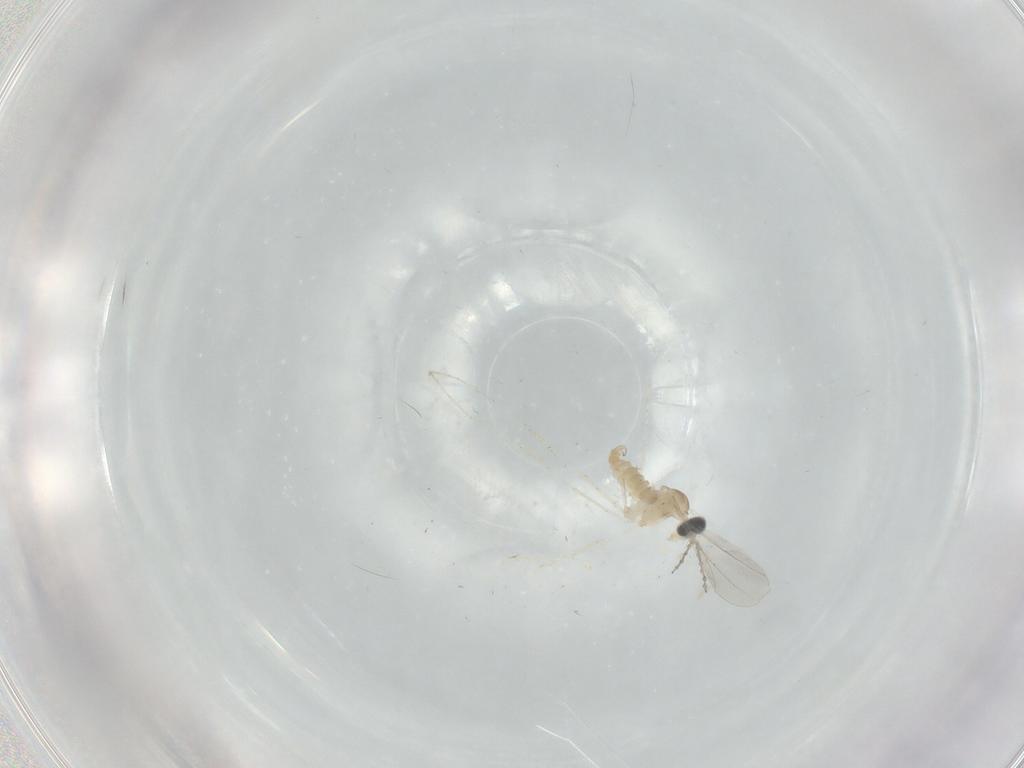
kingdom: Animalia
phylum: Arthropoda
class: Insecta
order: Diptera
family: Cecidomyiidae
